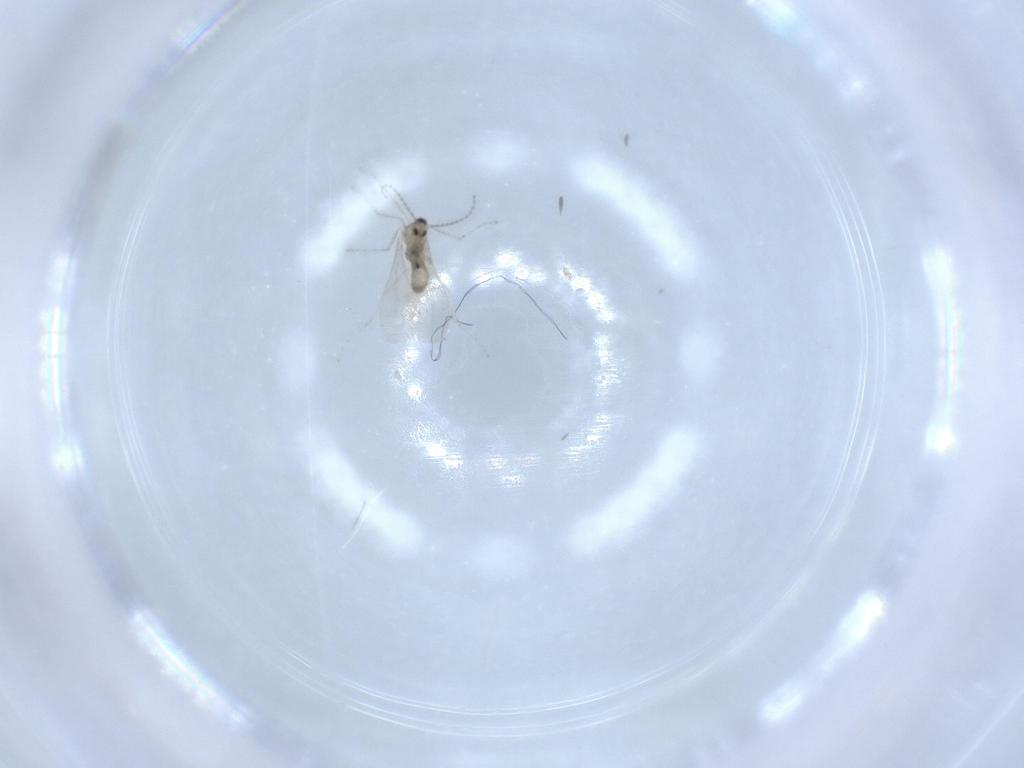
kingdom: Animalia
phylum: Arthropoda
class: Insecta
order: Diptera
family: Cecidomyiidae
